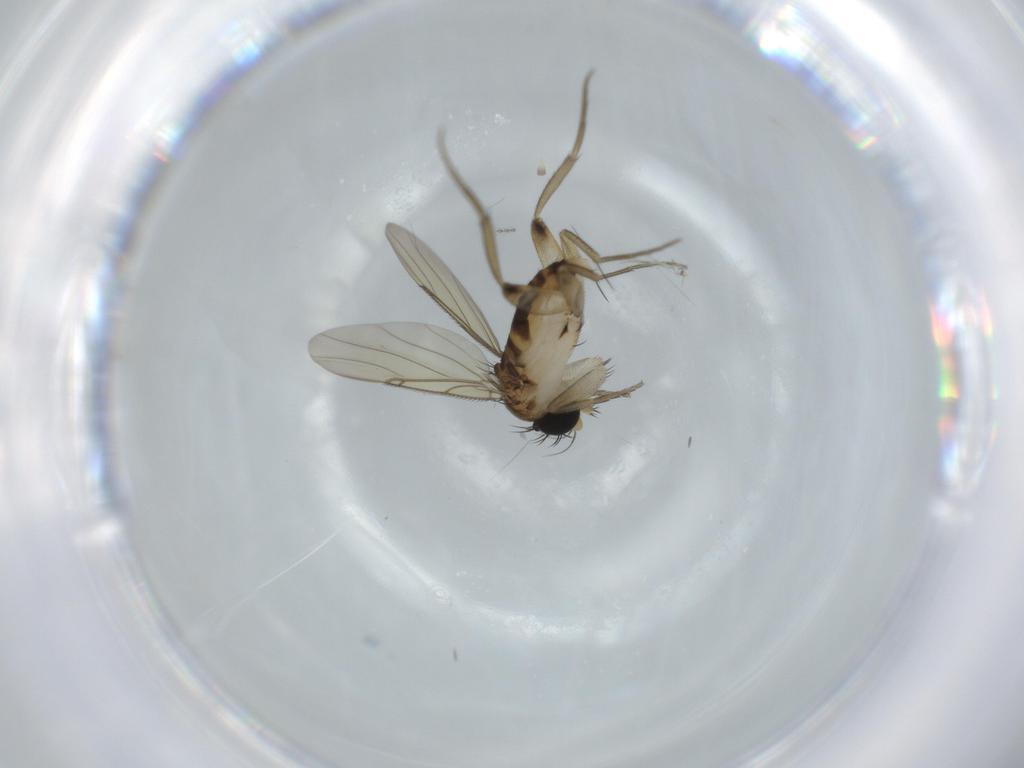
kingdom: Animalia
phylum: Arthropoda
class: Insecta
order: Diptera
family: Phoridae
